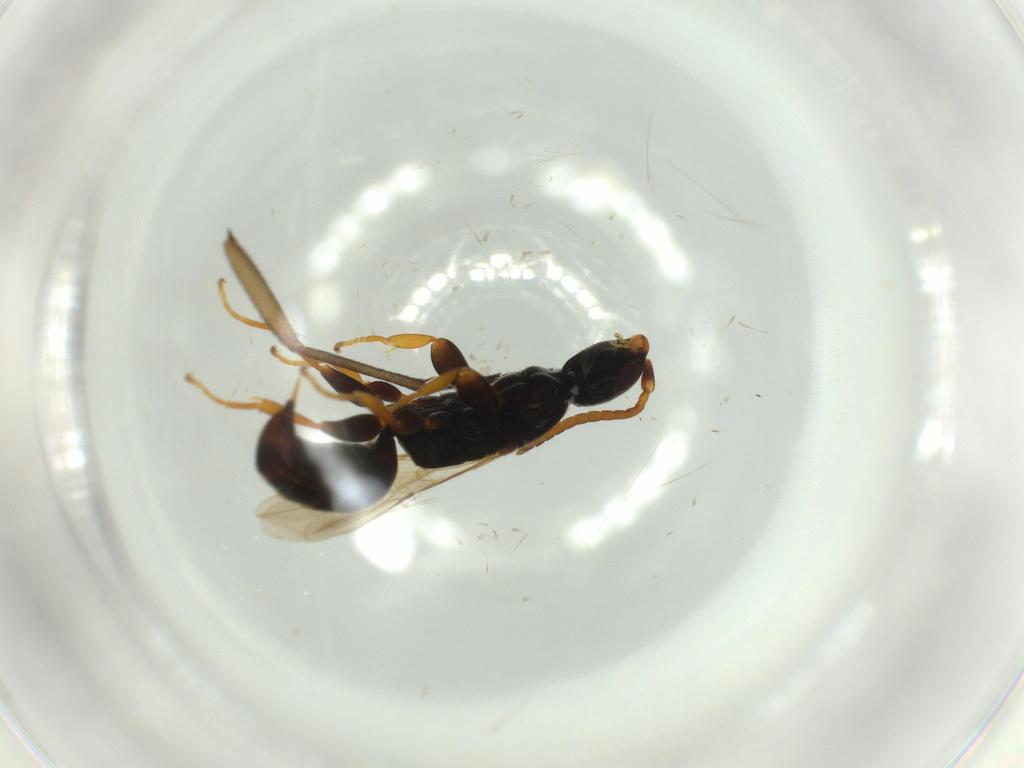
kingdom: Animalia
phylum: Arthropoda
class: Insecta
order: Hymenoptera
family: Bethylidae
